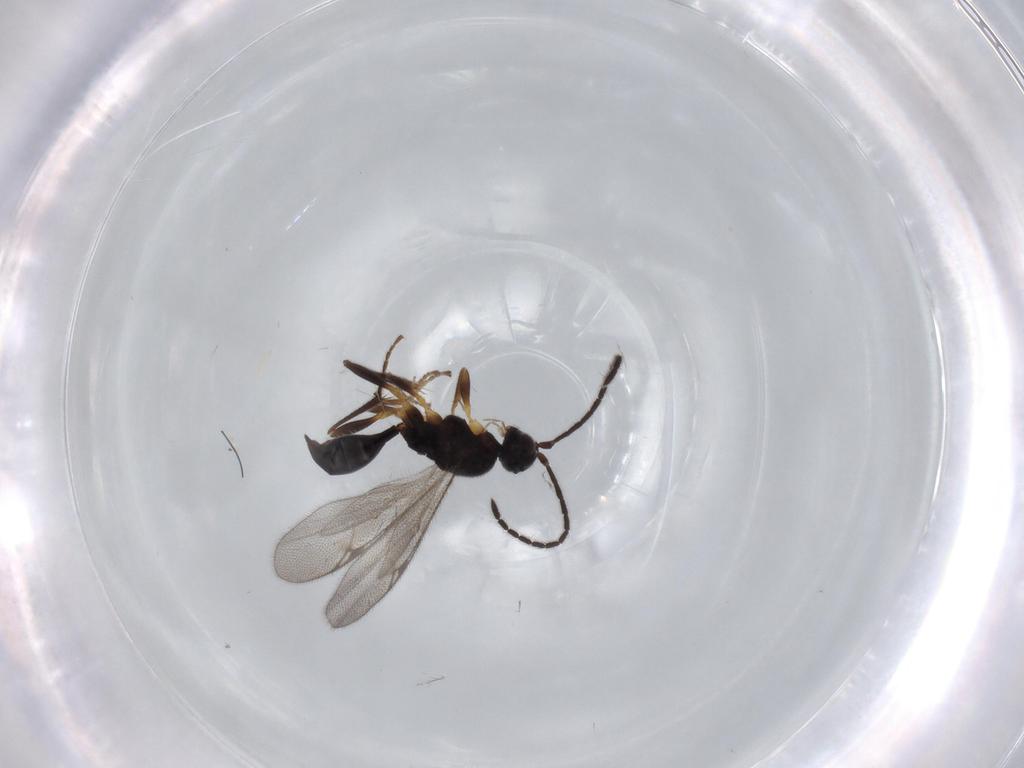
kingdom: Animalia
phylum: Arthropoda
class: Insecta
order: Hymenoptera
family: Proctotrupidae
